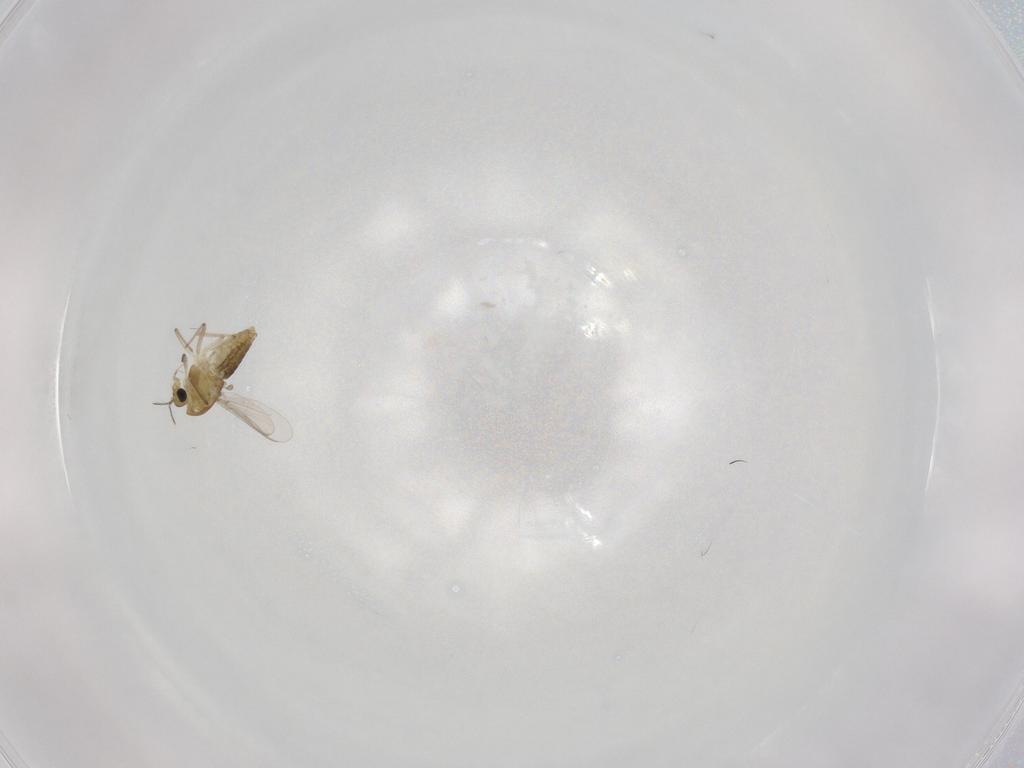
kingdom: Animalia
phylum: Arthropoda
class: Insecta
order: Diptera
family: Chironomidae
